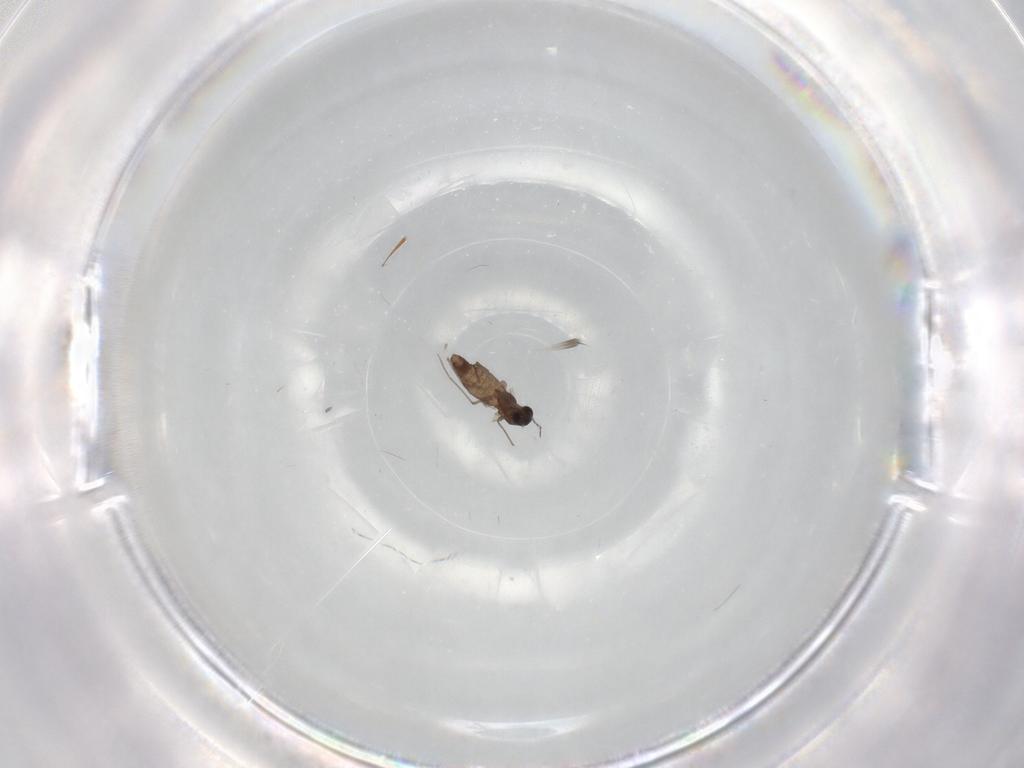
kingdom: Animalia
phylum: Arthropoda
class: Insecta
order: Diptera
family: Chironomidae
